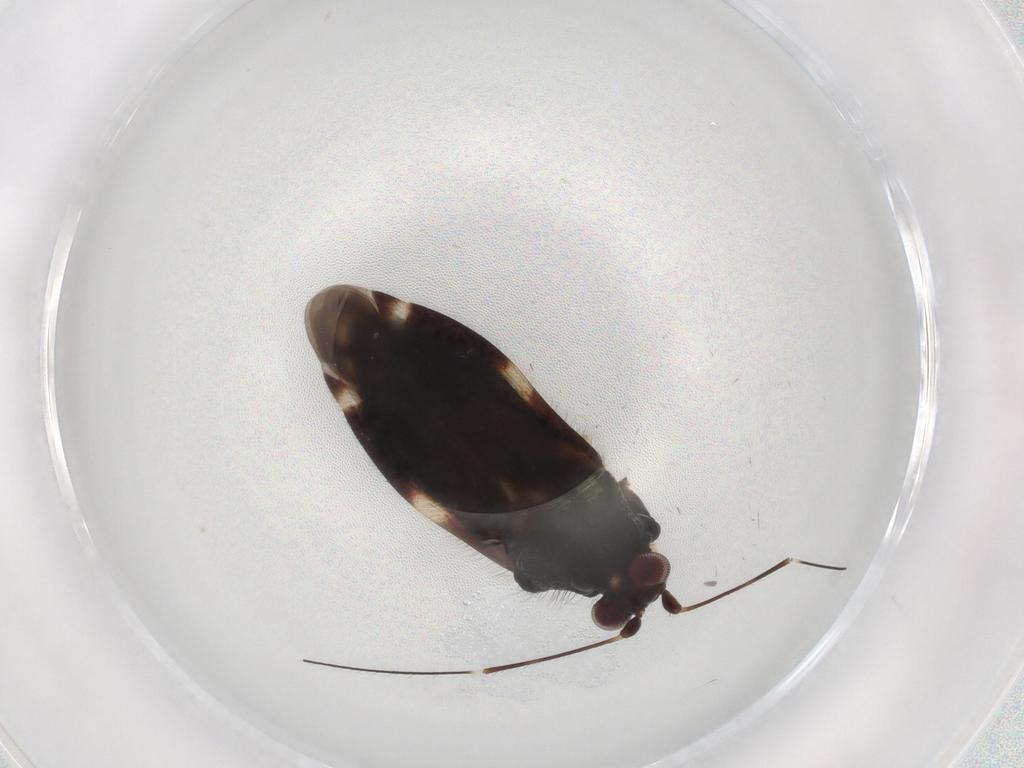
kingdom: Animalia
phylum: Arthropoda
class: Insecta
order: Hemiptera
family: Miridae
